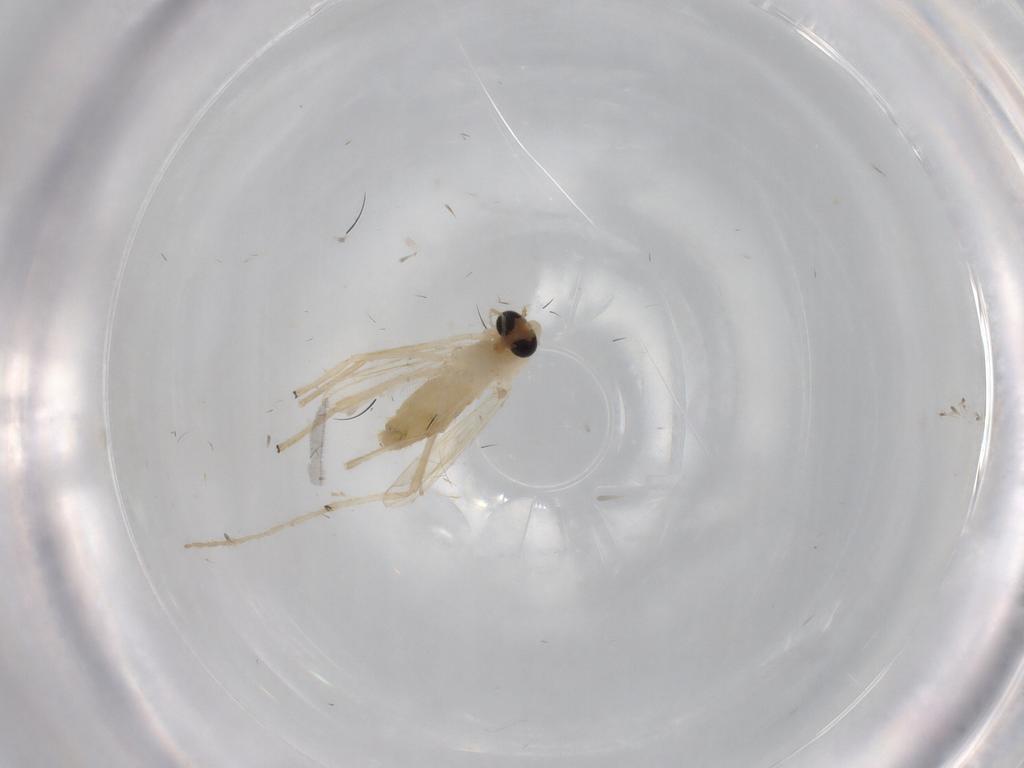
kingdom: Animalia
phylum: Arthropoda
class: Insecta
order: Diptera
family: Chironomidae
